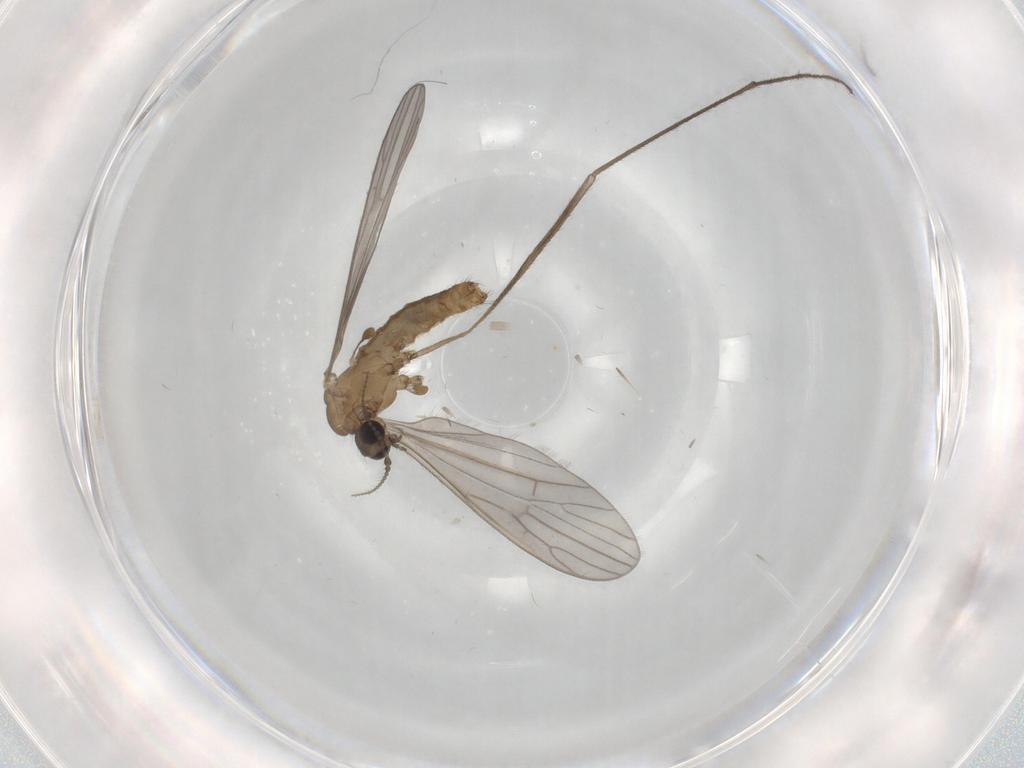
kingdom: Animalia
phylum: Arthropoda
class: Insecta
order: Diptera
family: Limoniidae
